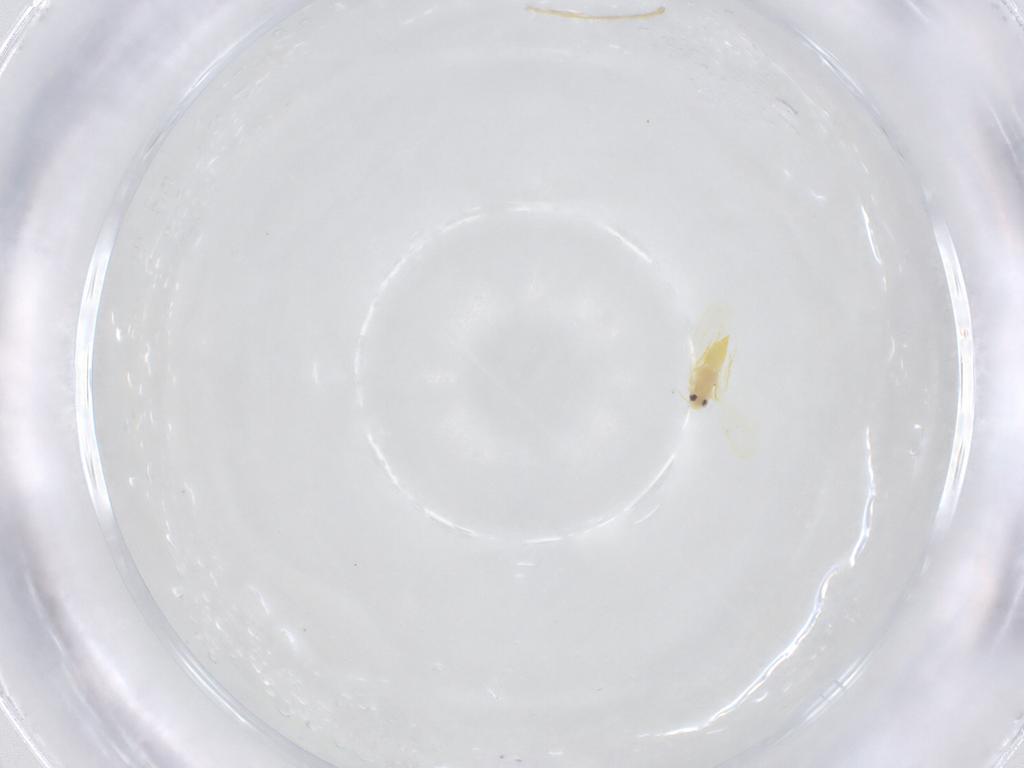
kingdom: Animalia
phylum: Arthropoda
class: Insecta
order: Hemiptera
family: Aleyrodidae
